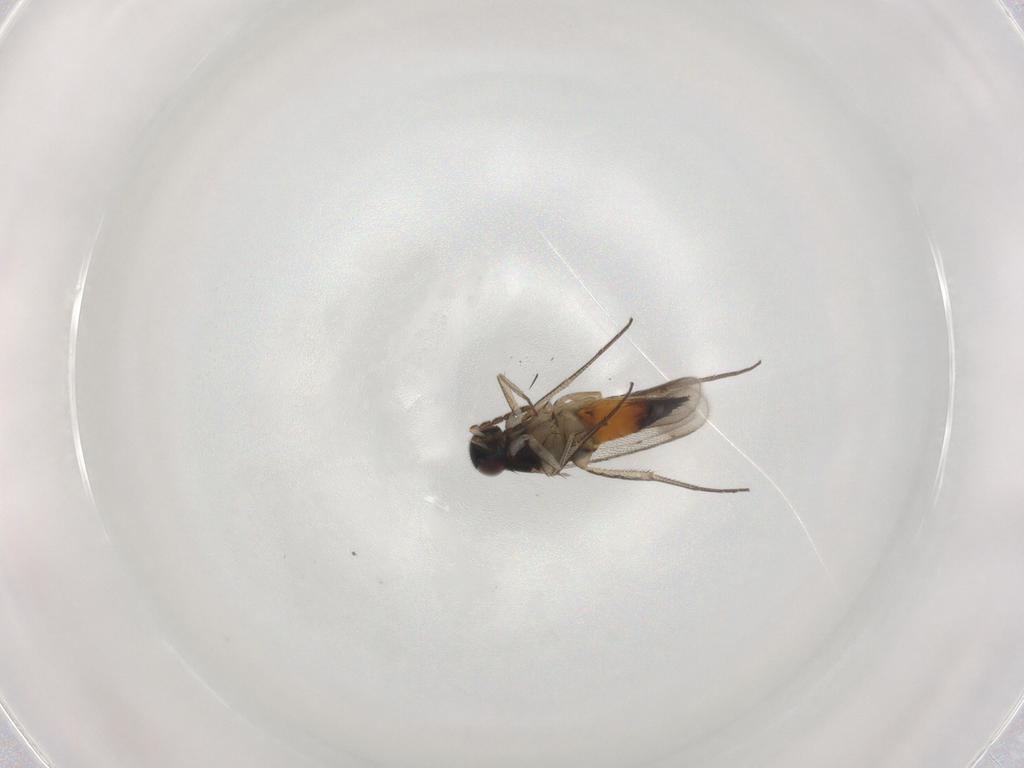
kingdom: Animalia
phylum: Arthropoda
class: Insecta
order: Hymenoptera
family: Eulophidae
